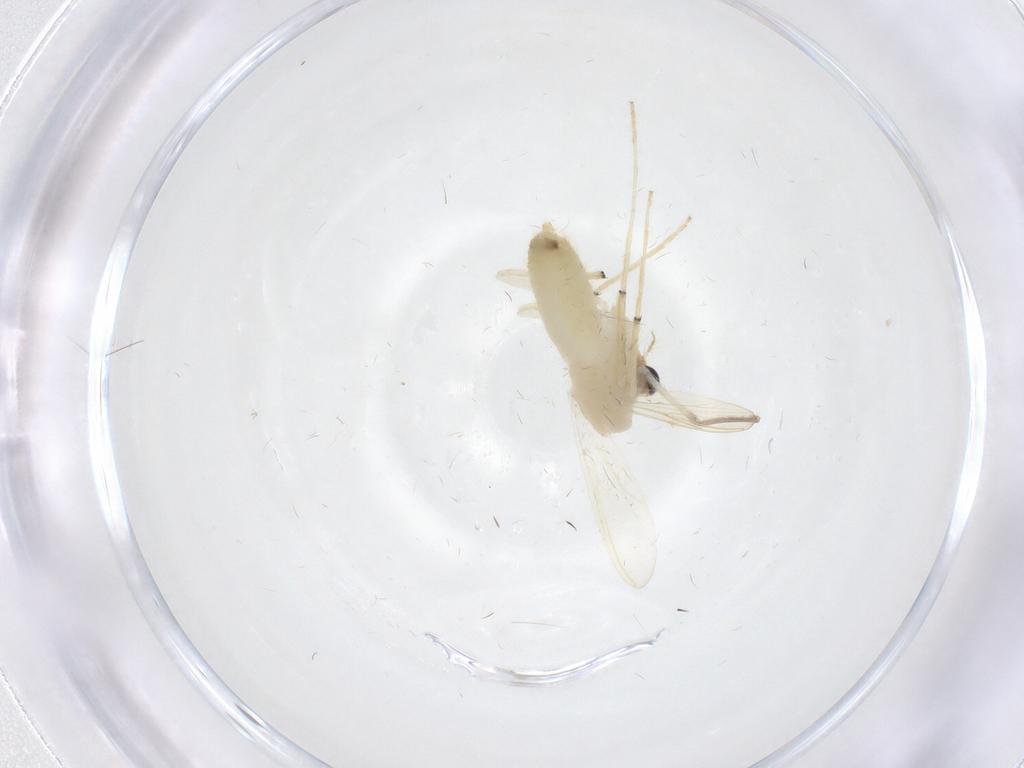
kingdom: Animalia
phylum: Arthropoda
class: Insecta
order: Diptera
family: Chironomidae
